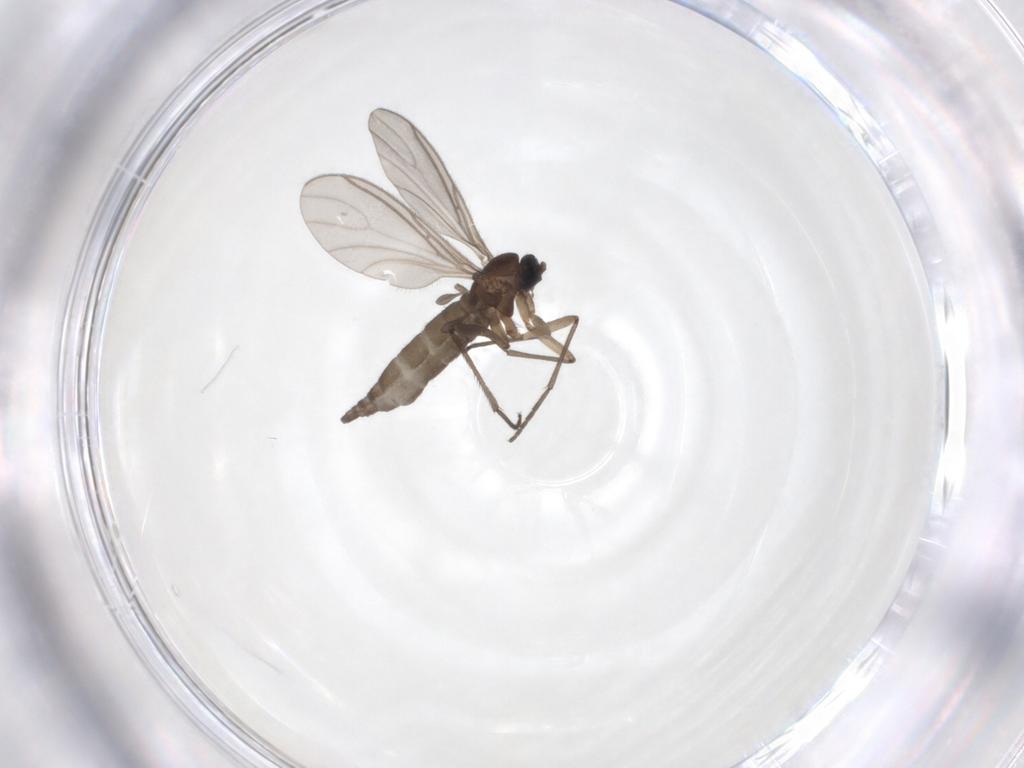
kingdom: Animalia
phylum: Arthropoda
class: Insecta
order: Diptera
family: Sciaridae
